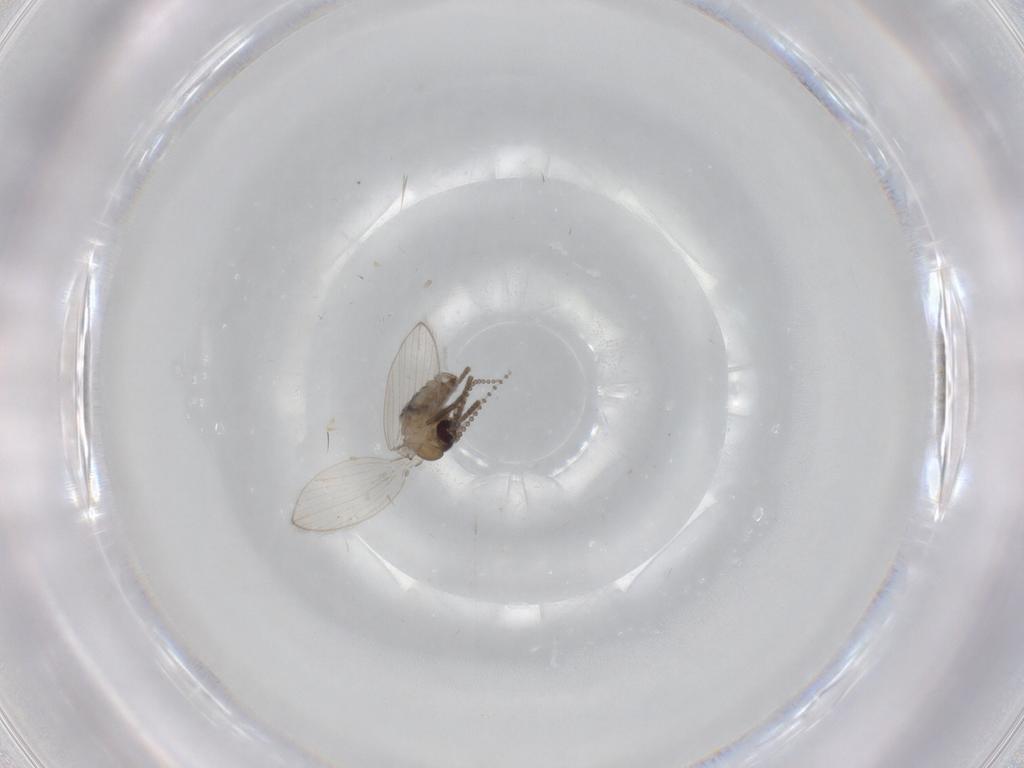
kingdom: Animalia
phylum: Arthropoda
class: Insecta
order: Diptera
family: Psychodidae
